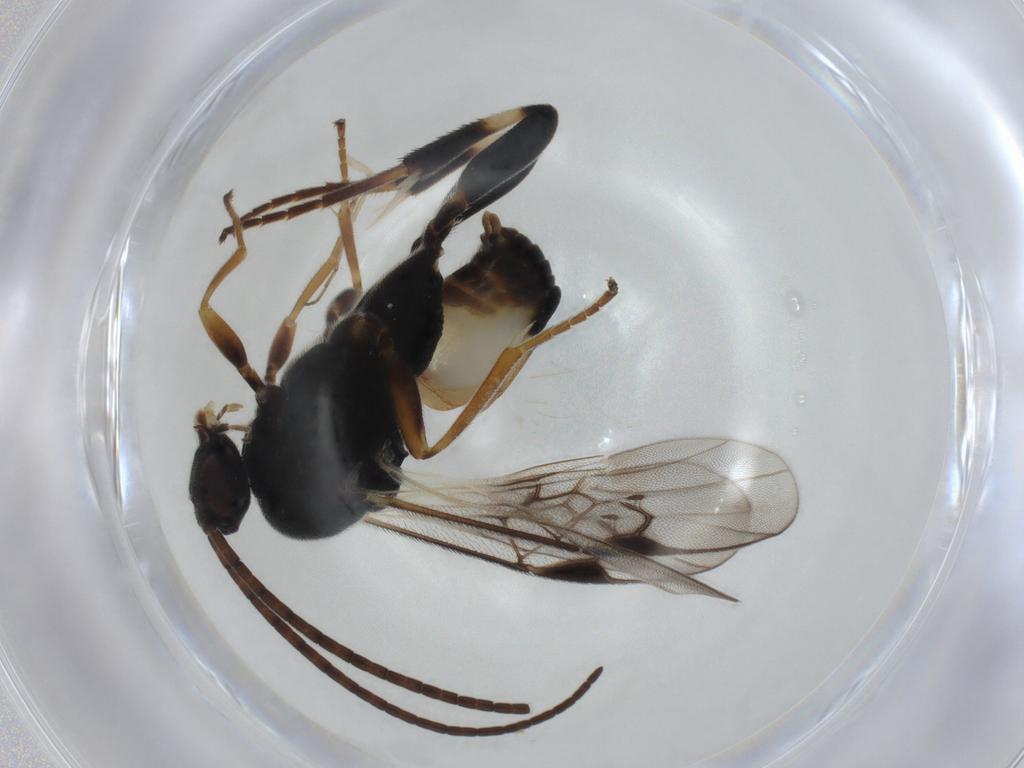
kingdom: Animalia
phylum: Arthropoda
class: Insecta
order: Hymenoptera
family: Braconidae
